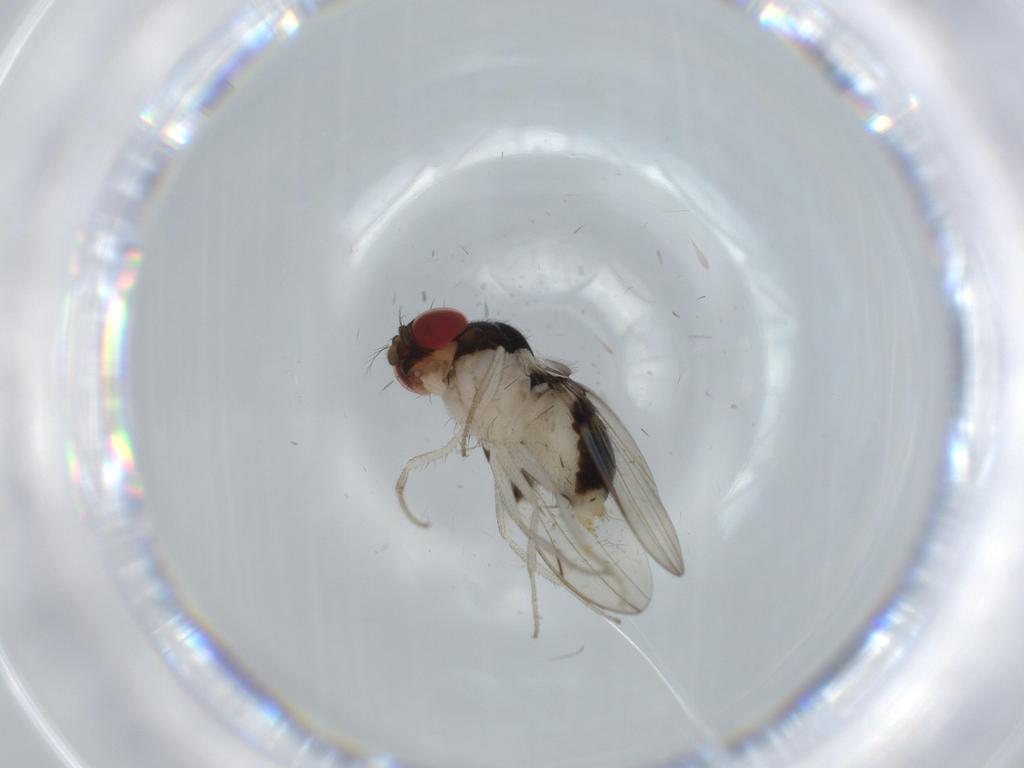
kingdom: Animalia
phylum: Arthropoda
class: Insecta
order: Diptera
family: Drosophilidae
